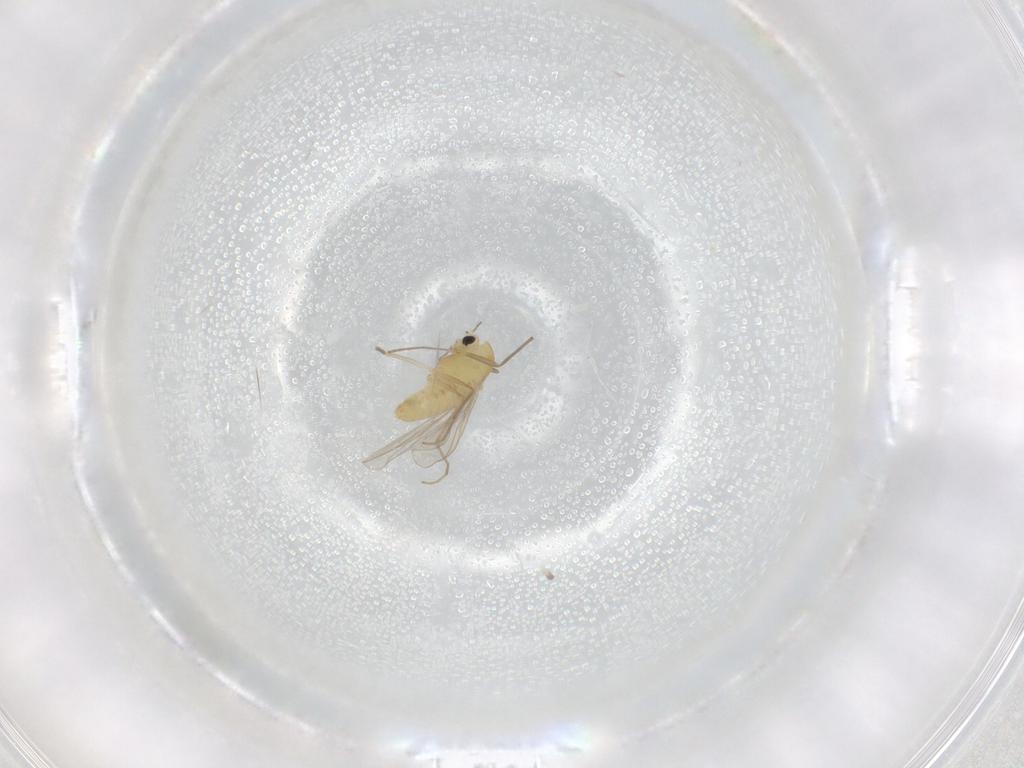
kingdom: Animalia
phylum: Arthropoda
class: Insecta
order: Diptera
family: Chironomidae
